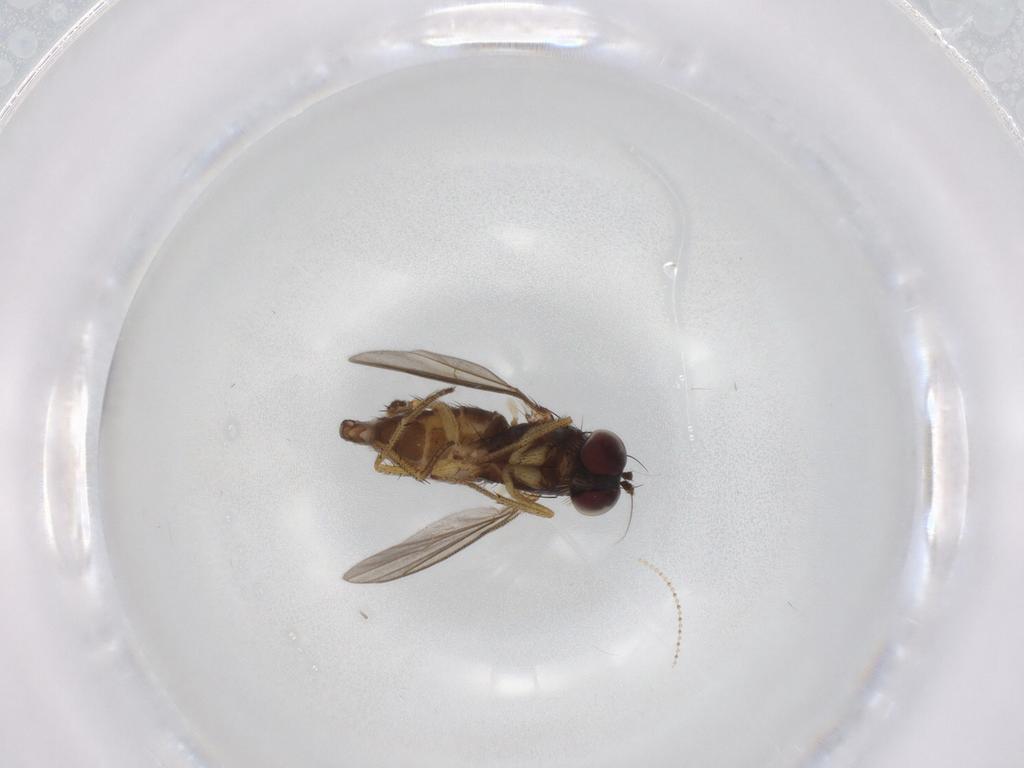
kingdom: Animalia
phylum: Arthropoda
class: Insecta
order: Diptera
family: Dolichopodidae
